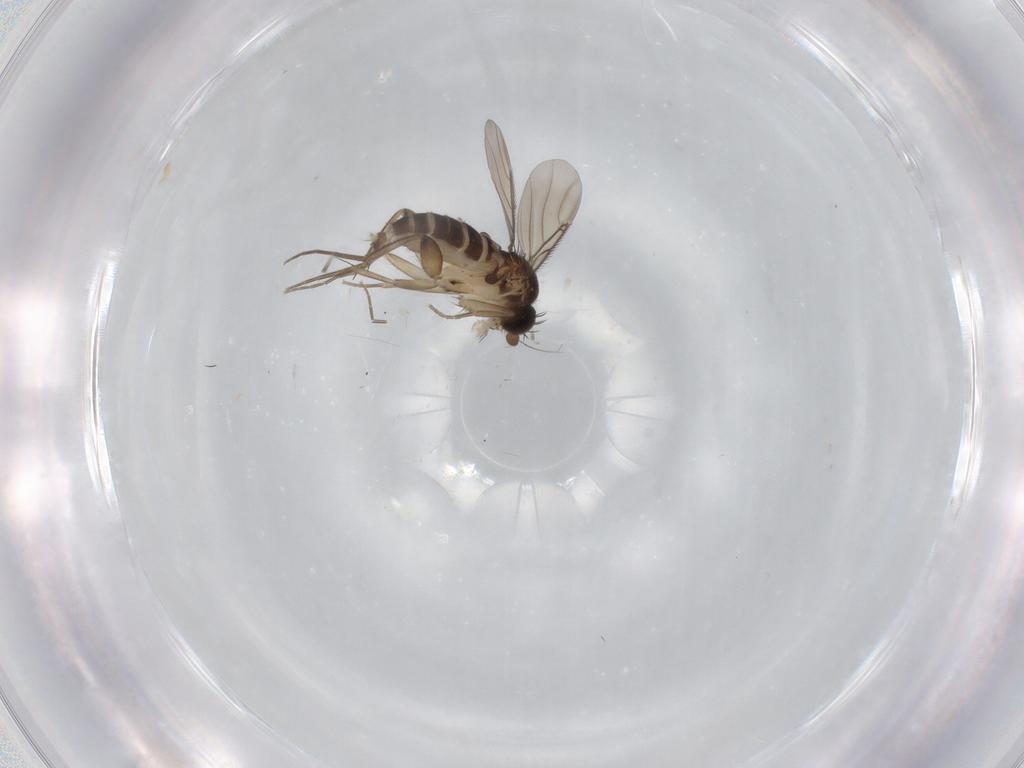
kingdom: Animalia
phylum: Arthropoda
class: Insecta
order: Diptera
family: Phoridae
